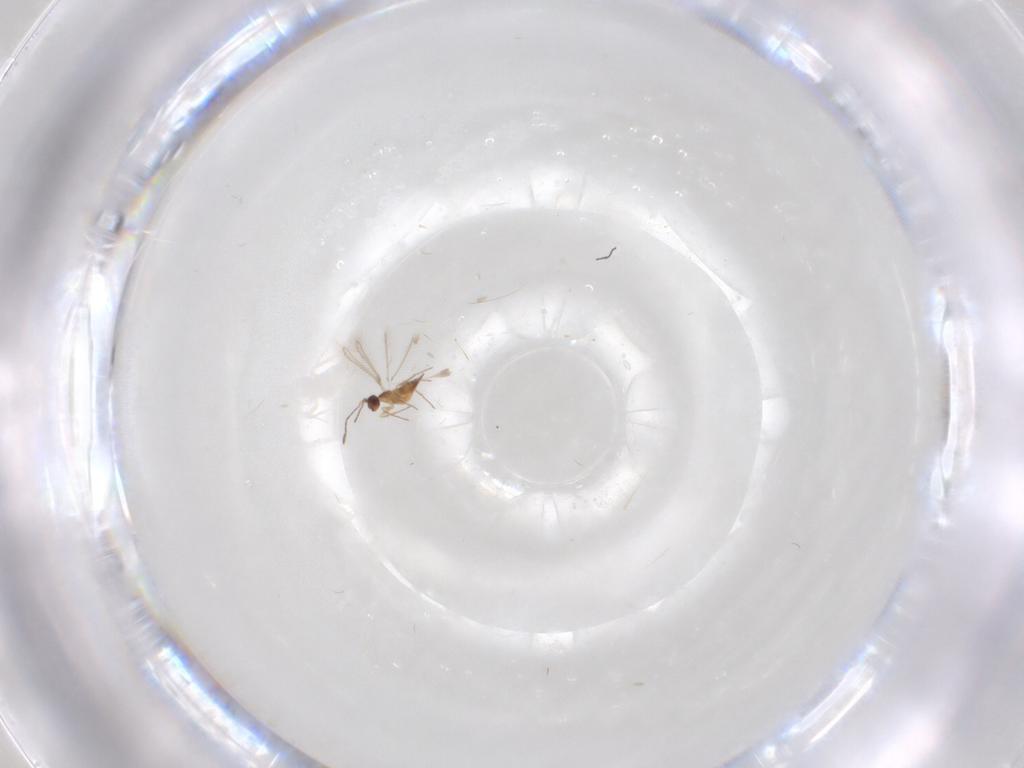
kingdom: Animalia
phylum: Arthropoda
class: Insecta
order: Hymenoptera
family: Mymaridae
